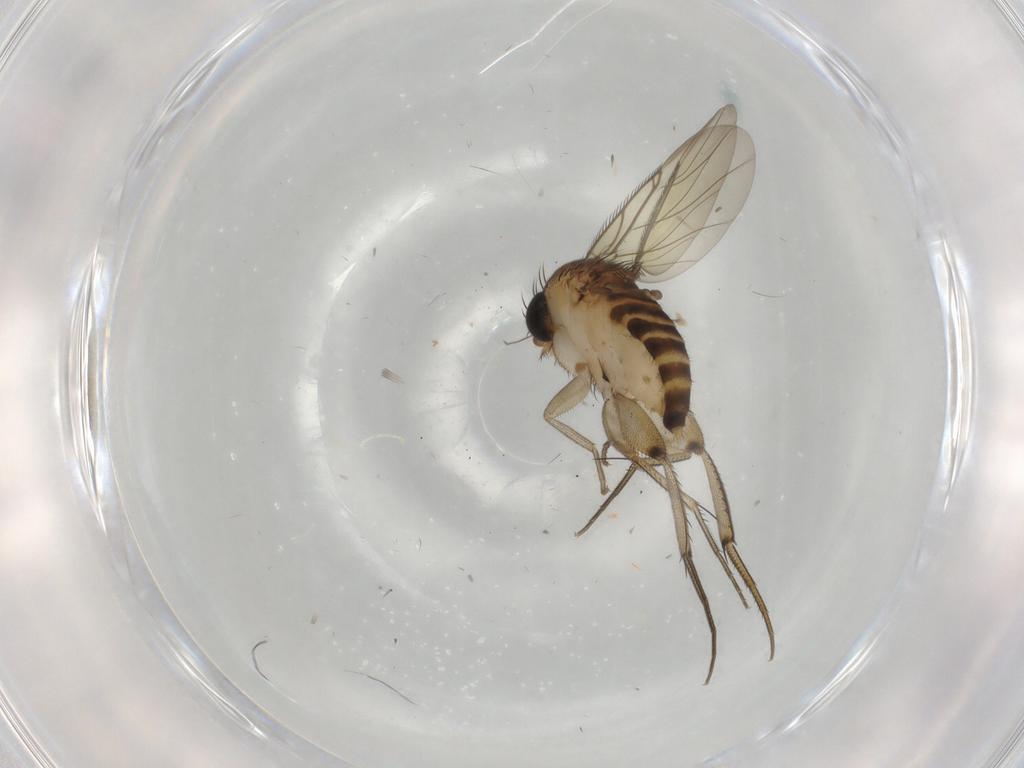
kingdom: Animalia
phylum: Arthropoda
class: Insecta
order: Diptera
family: Phoridae
